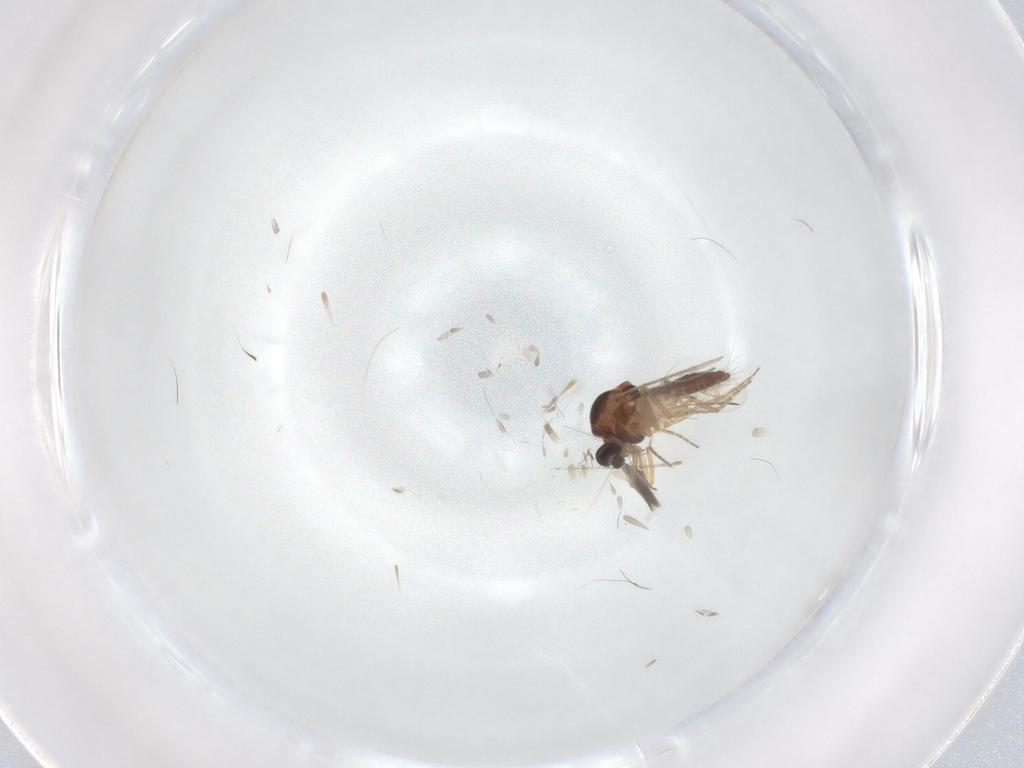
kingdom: Animalia
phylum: Arthropoda
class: Insecta
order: Diptera
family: Ceratopogonidae
